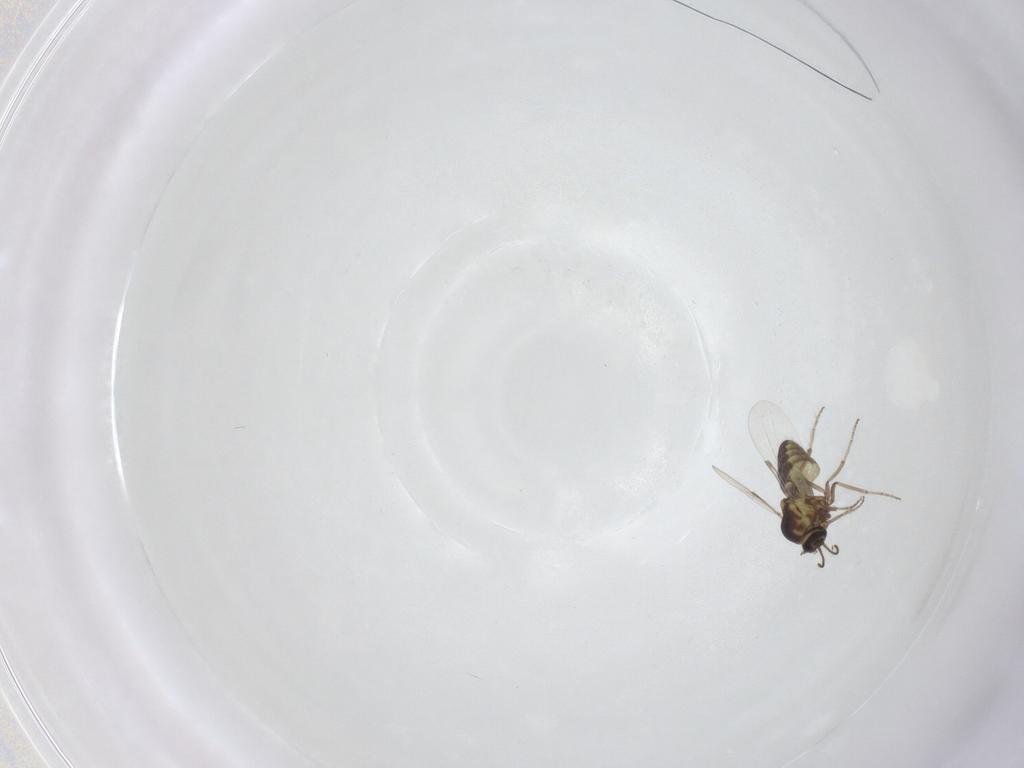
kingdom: Animalia
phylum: Arthropoda
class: Insecta
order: Diptera
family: Ceratopogonidae
